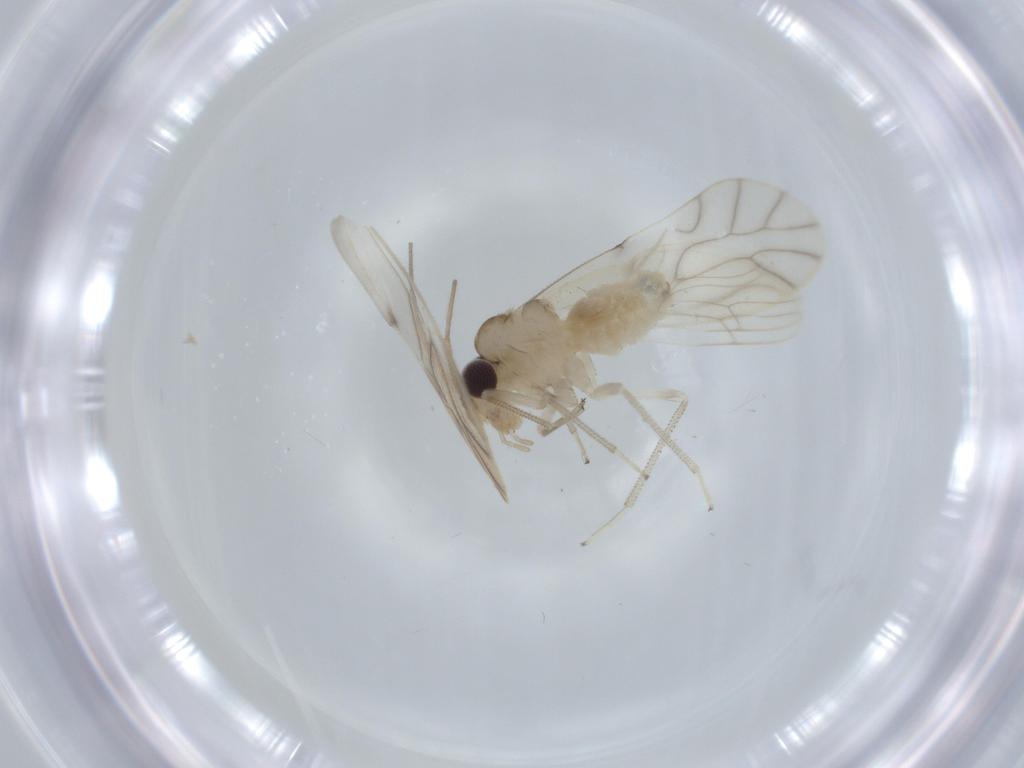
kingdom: Animalia
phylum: Arthropoda
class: Insecta
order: Psocodea
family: Caeciliusidae
